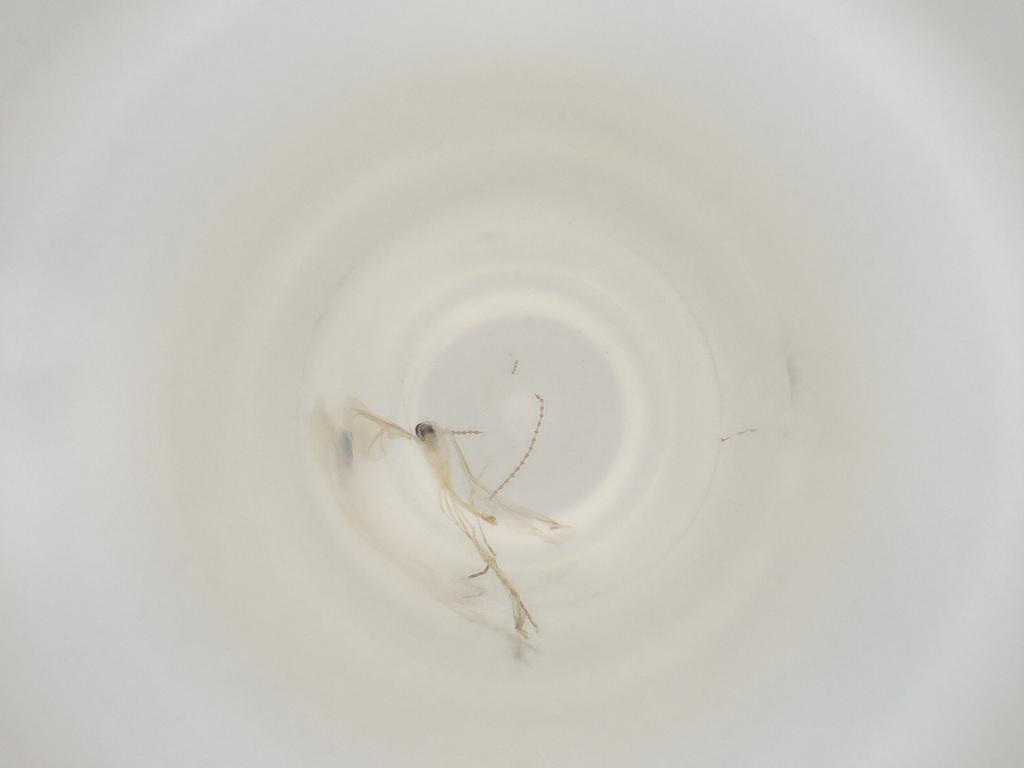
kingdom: Animalia
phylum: Arthropoda
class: Insecta
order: Diptera
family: Cecidomyiidae
